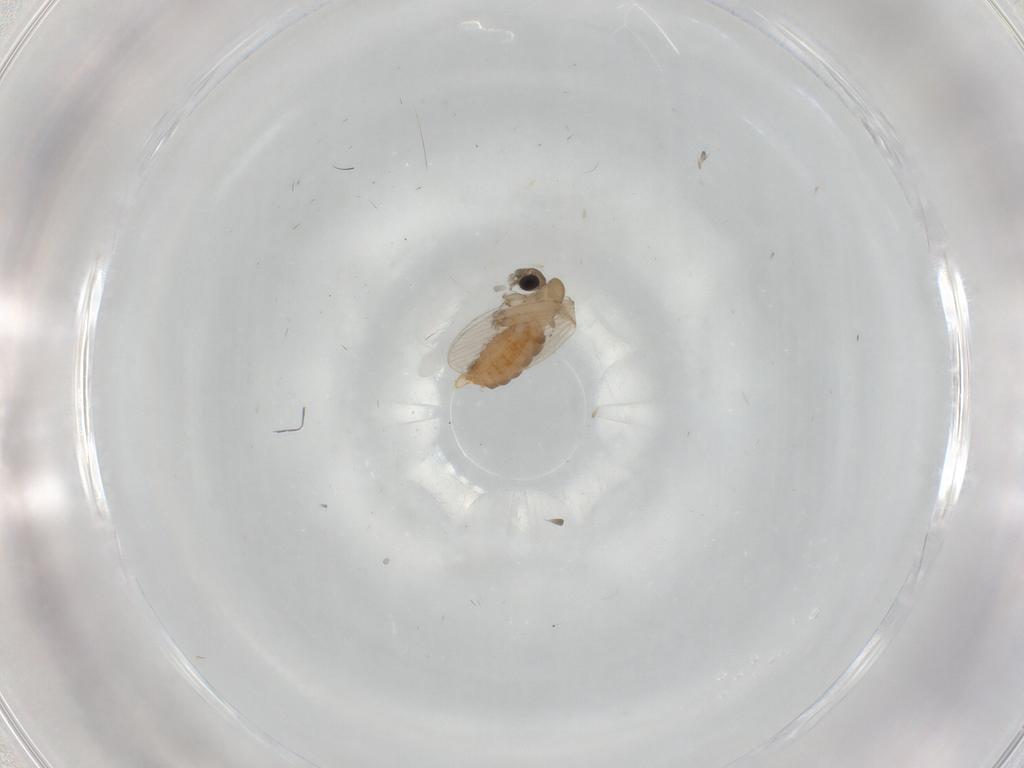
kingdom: Animalia
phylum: Arthropoda
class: Insecta
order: Diptera
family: Psychodidae
